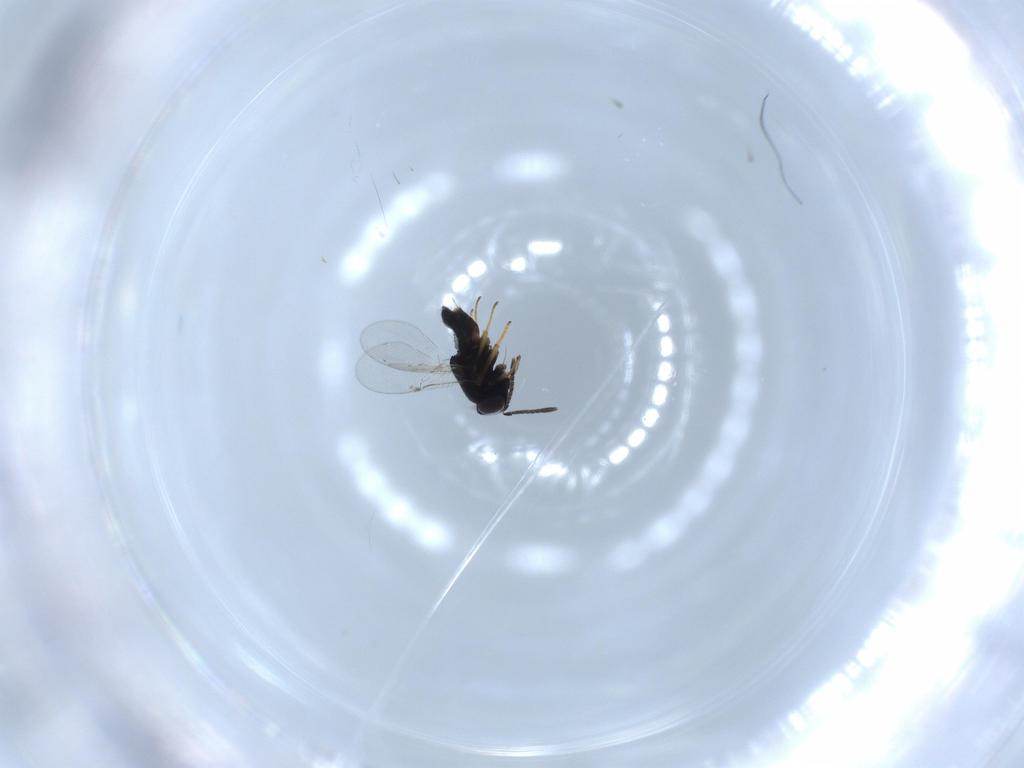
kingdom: Animalia
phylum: Arthropoda
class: Insecta
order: Hymenoptera
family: Encyrtidae
